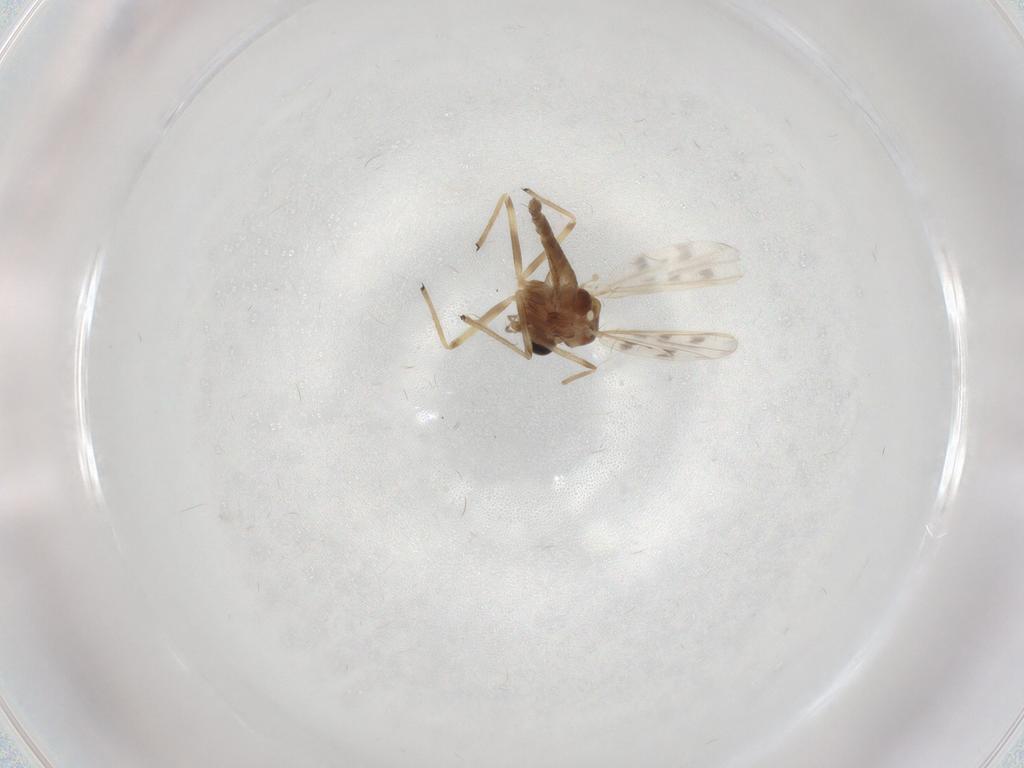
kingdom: Animalia
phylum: Arthropoda
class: Insecta
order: Diptera
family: Chironomidae
